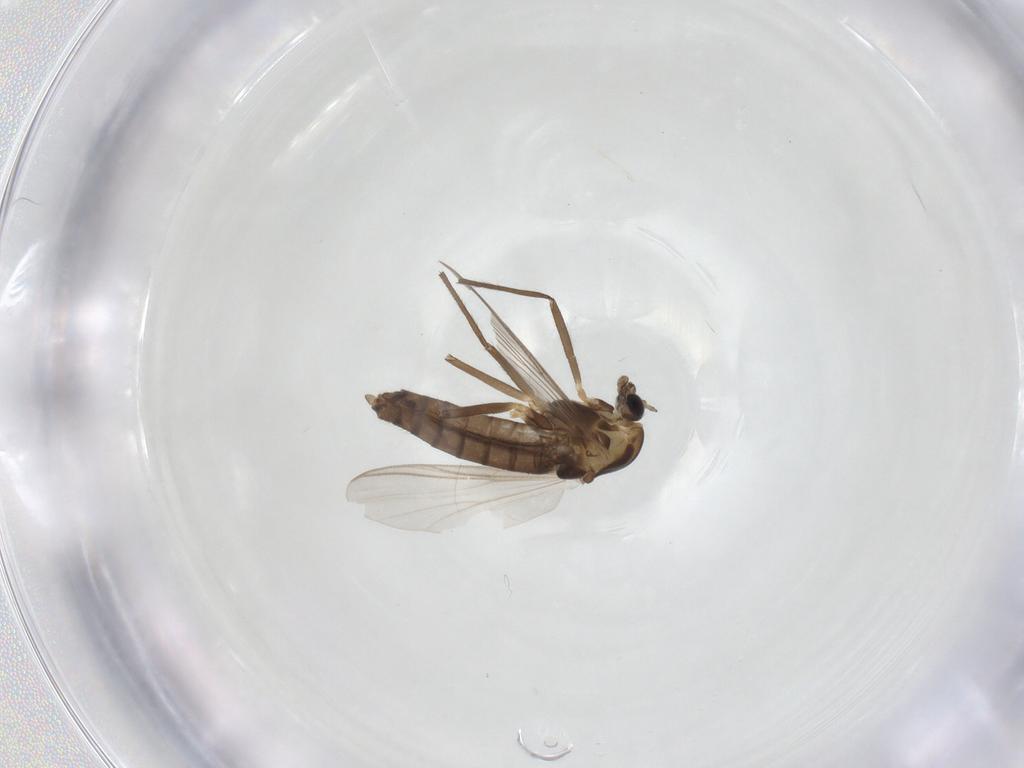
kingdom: Animalia
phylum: Arthropoda
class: Insecta
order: Diptera
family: Chironomidae
